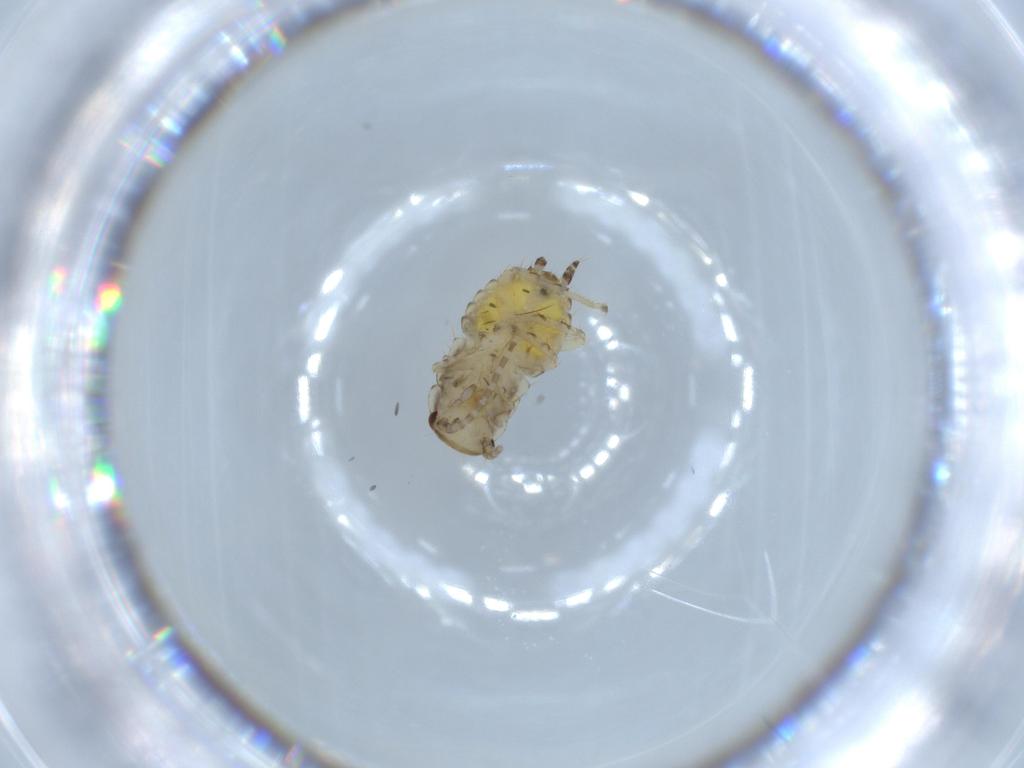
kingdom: Animalia
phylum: Arthropoda
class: Insecta
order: Blattodea
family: Ectobiidae
